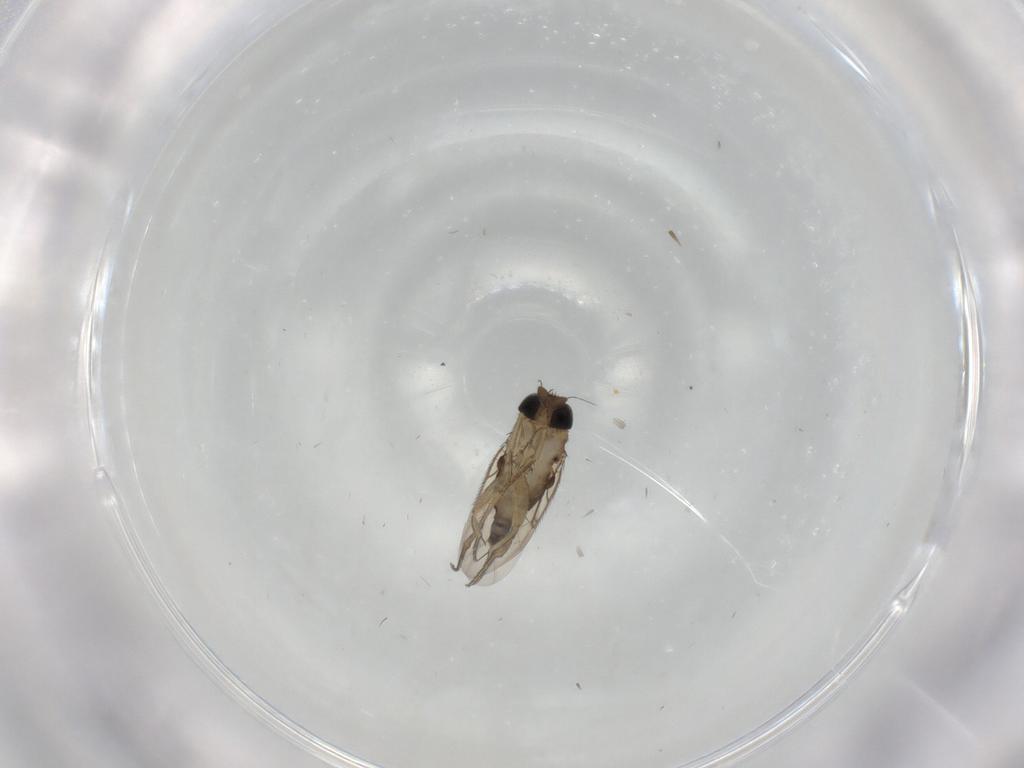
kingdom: Animalia
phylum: Arthropoda
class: Insecta
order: Diptera
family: Phoridae
